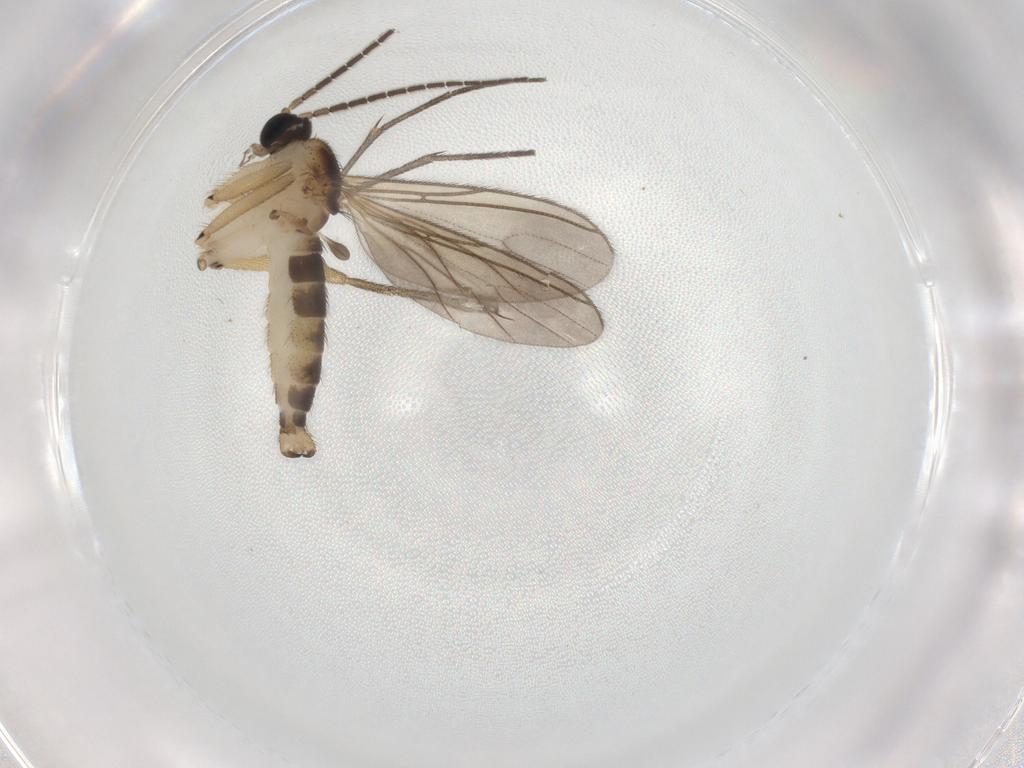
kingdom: Animalia
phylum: Arthropoda
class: Insecta
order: Diptera
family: Sciaridae
